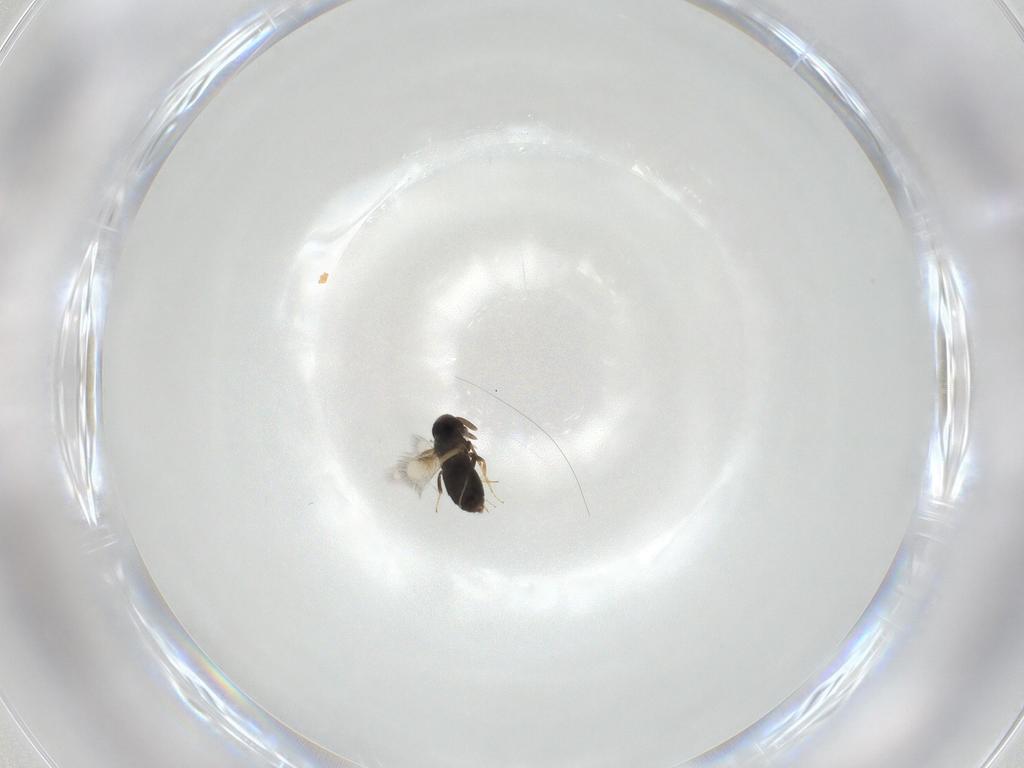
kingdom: Animalia
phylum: Arthropoda
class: Insecta
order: Hymenoptera
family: Signiphoridae
